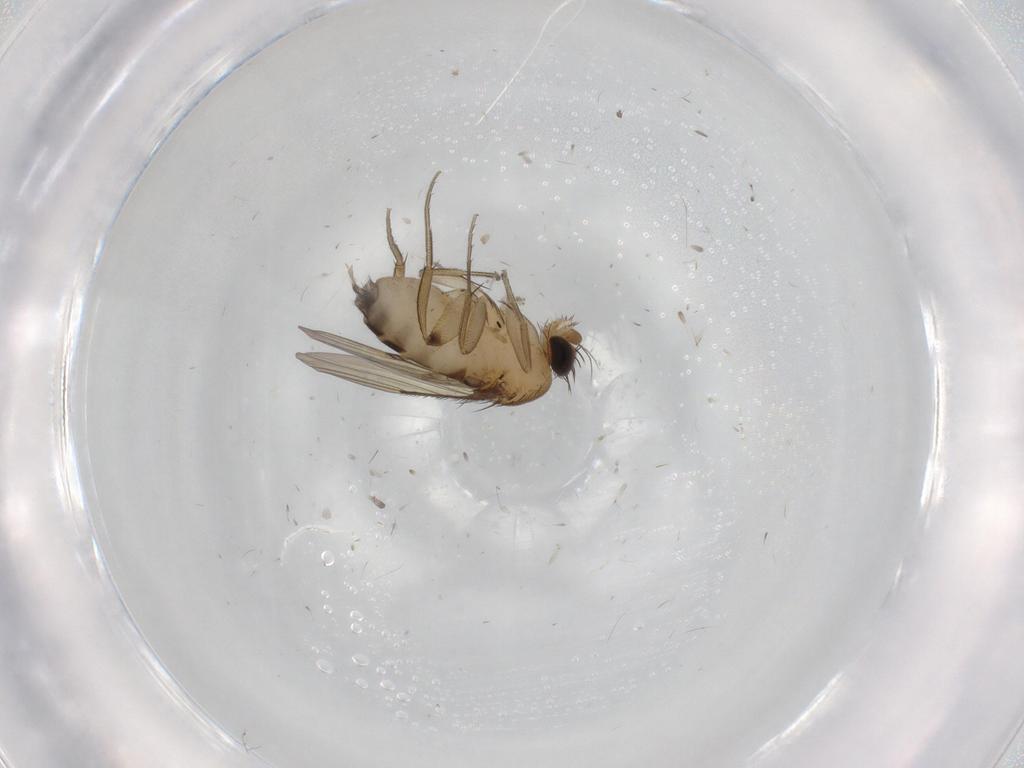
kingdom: Animalia
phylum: Arthropoda
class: Insecta
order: Diptera
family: Phoridae
